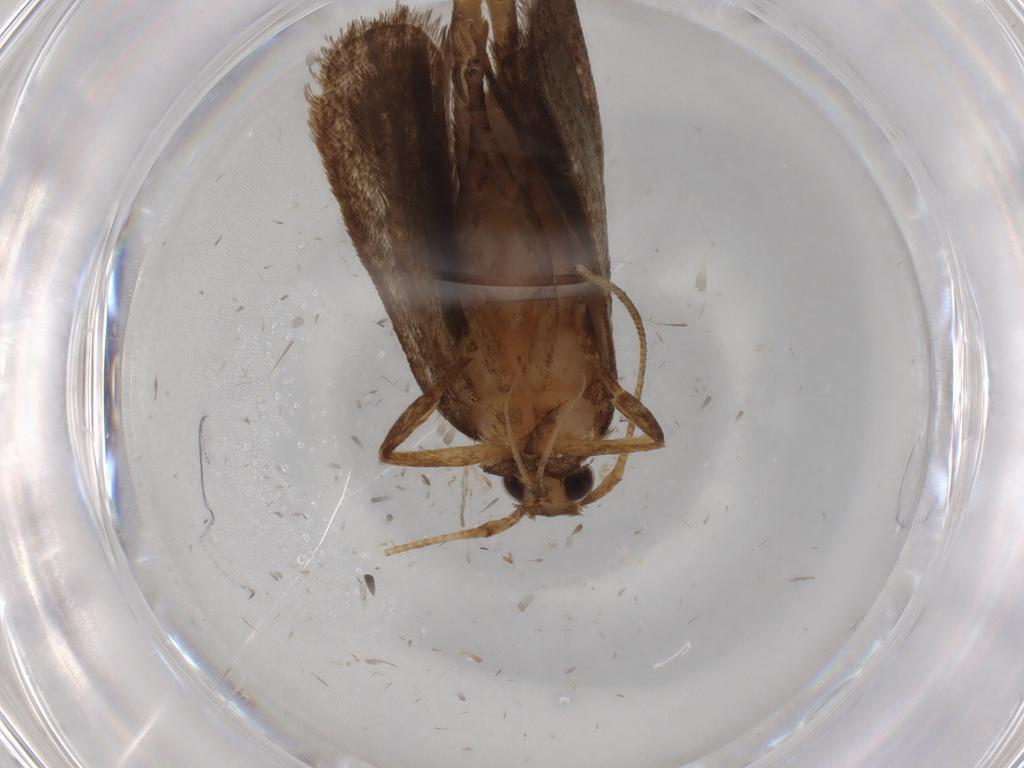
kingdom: Animalia
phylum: Arthropoda
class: Insecta
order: Lepidoptera
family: Autostichidae
